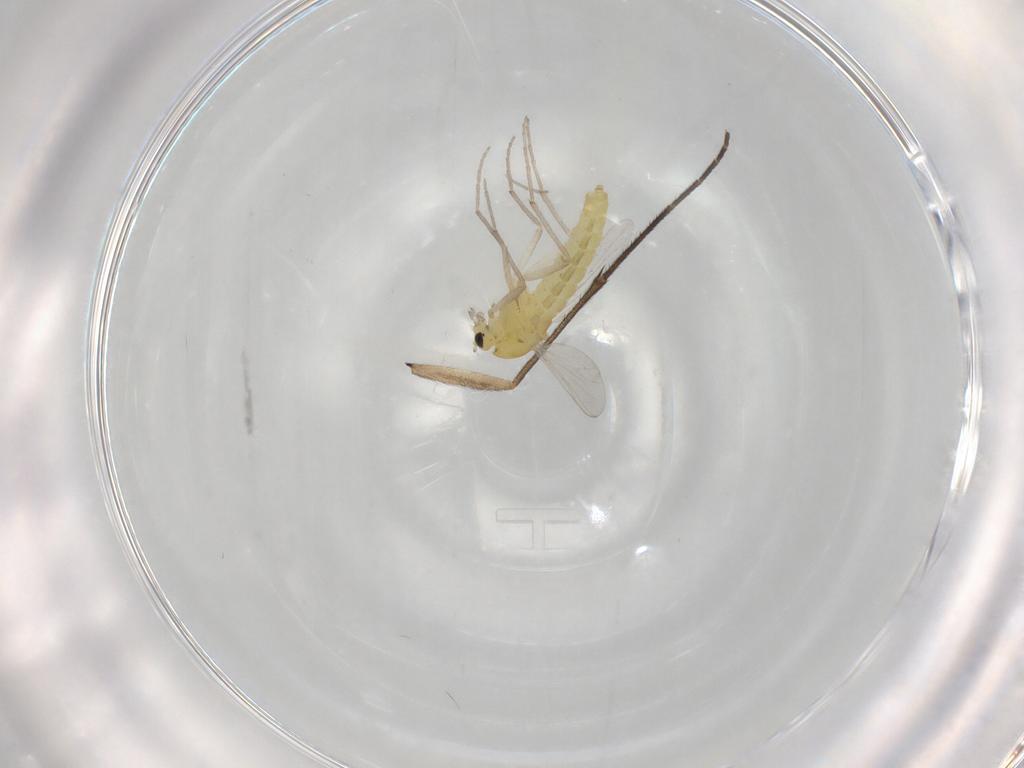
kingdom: Animalia
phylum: Arthropoda
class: Insecta
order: Diptera
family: Chironomidae
